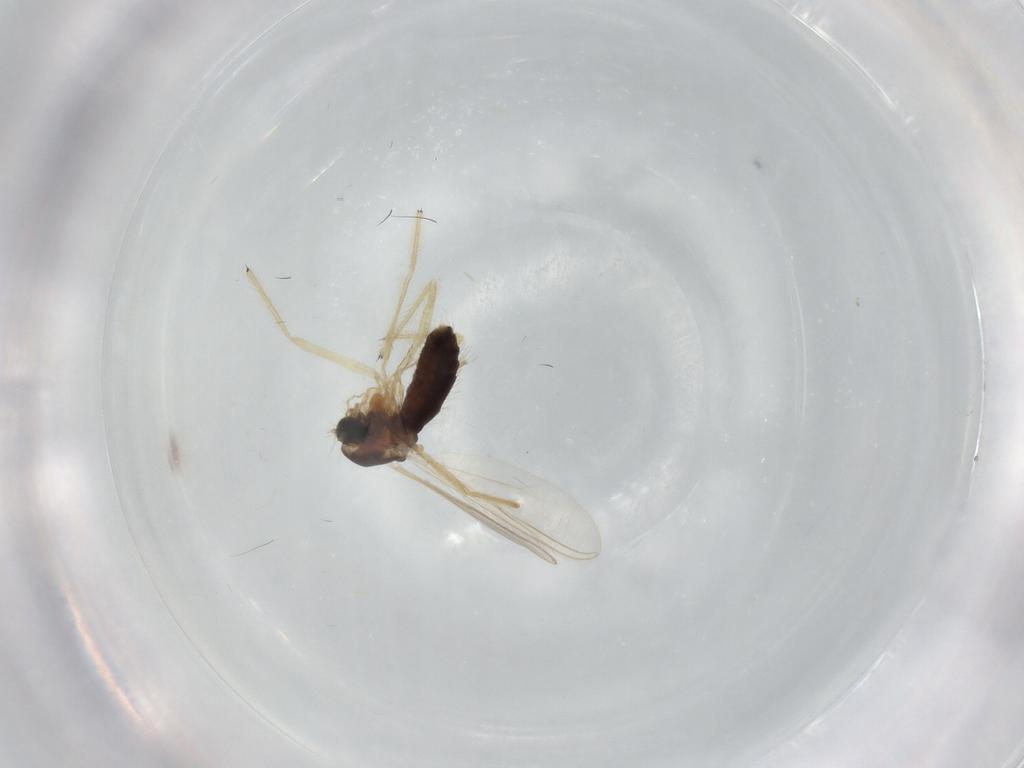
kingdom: Animalia
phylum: Arthropoda
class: Insecta
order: Diptera
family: Chironomidae
